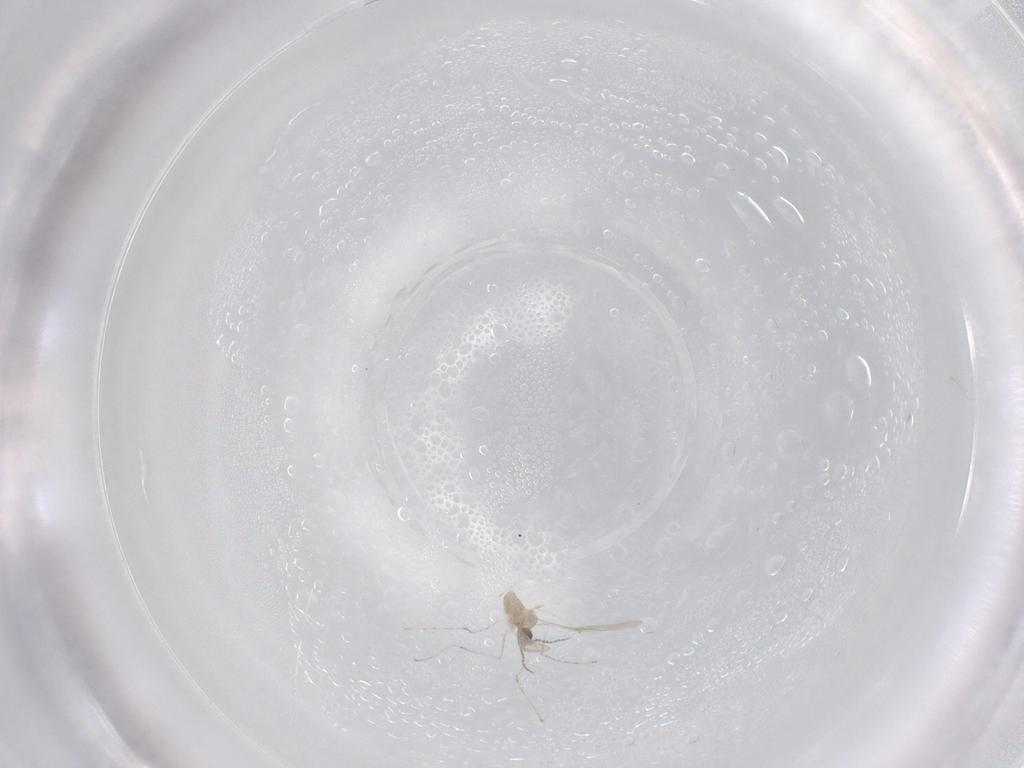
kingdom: Animalia
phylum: Arthropoda
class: Insecta
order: Diptera
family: Cecidomyiidae
